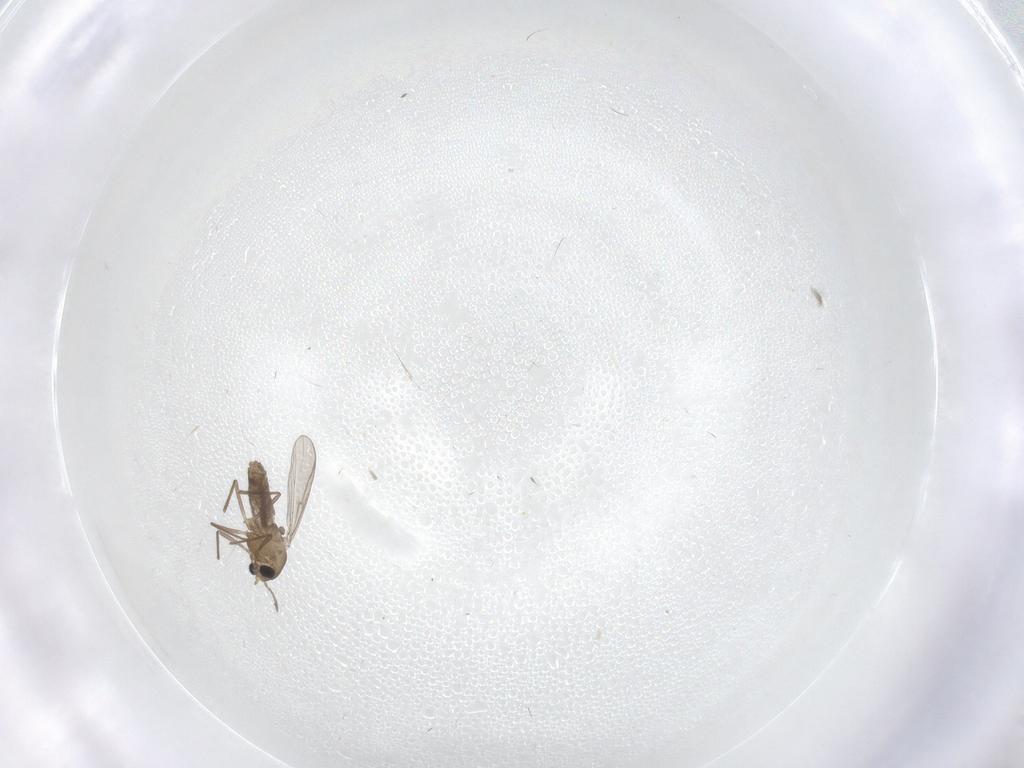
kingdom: Animalia
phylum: Arthropoda
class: Insecta
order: Diptera
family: Chironomidae
